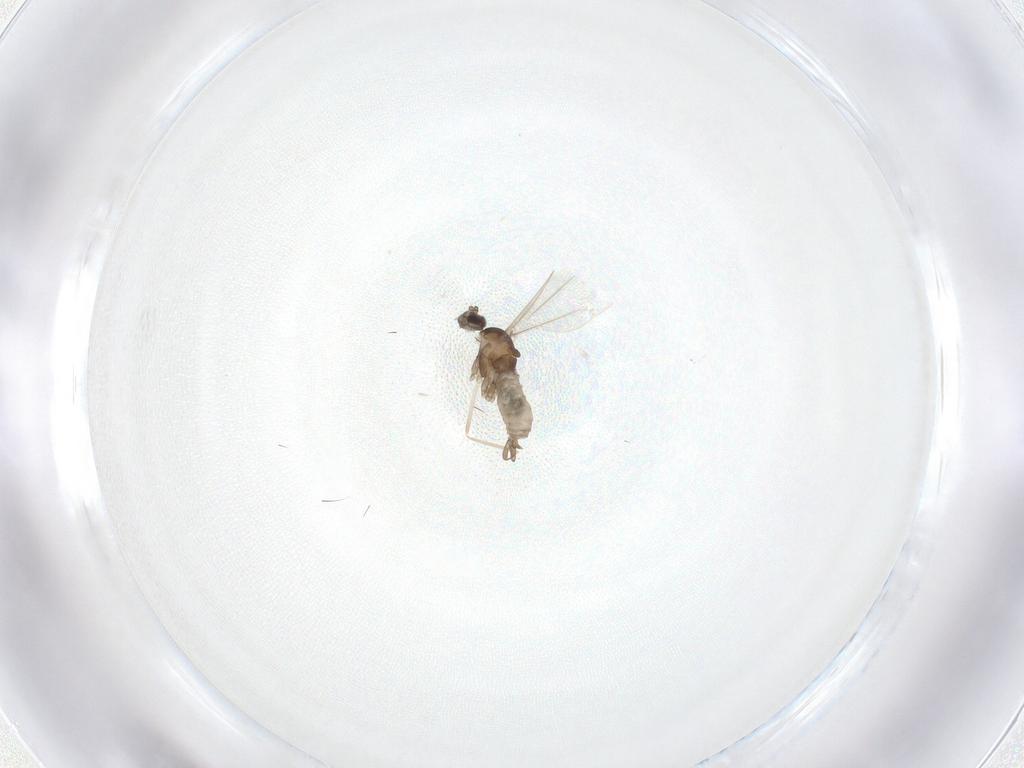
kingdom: Animalia
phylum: Arthropoda
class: Insecta
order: Diptera
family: Cecidomyiidae
